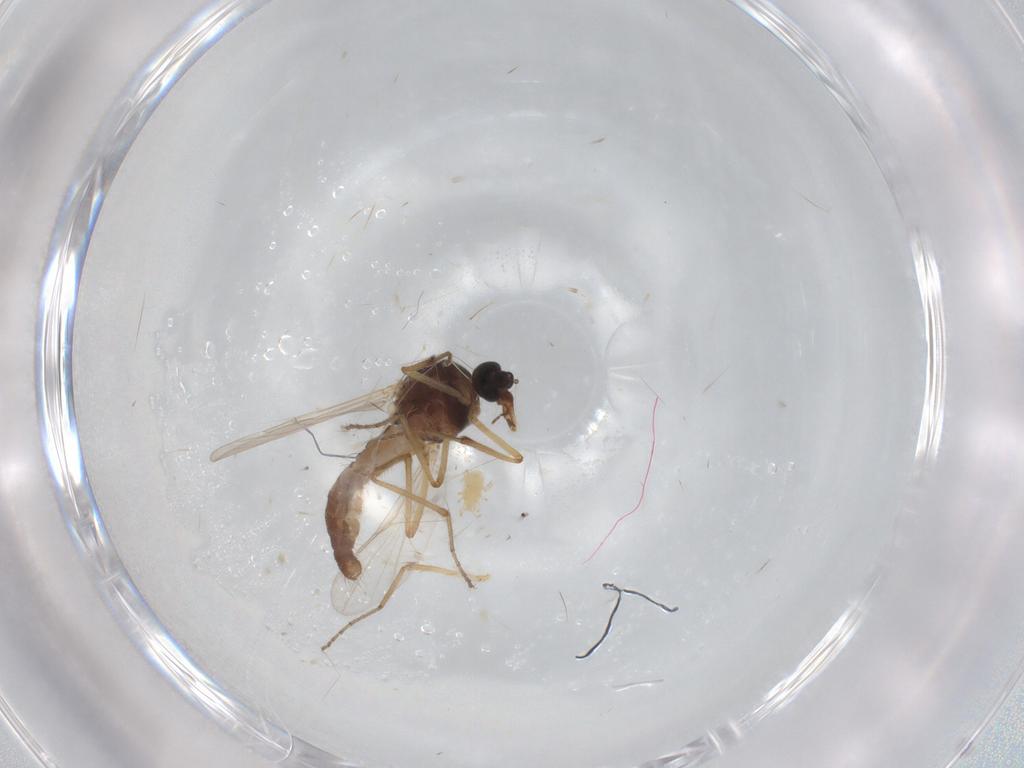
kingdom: Animalia
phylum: Arthropoda
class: Insecta
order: Diptera
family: Ceratopogonidae
